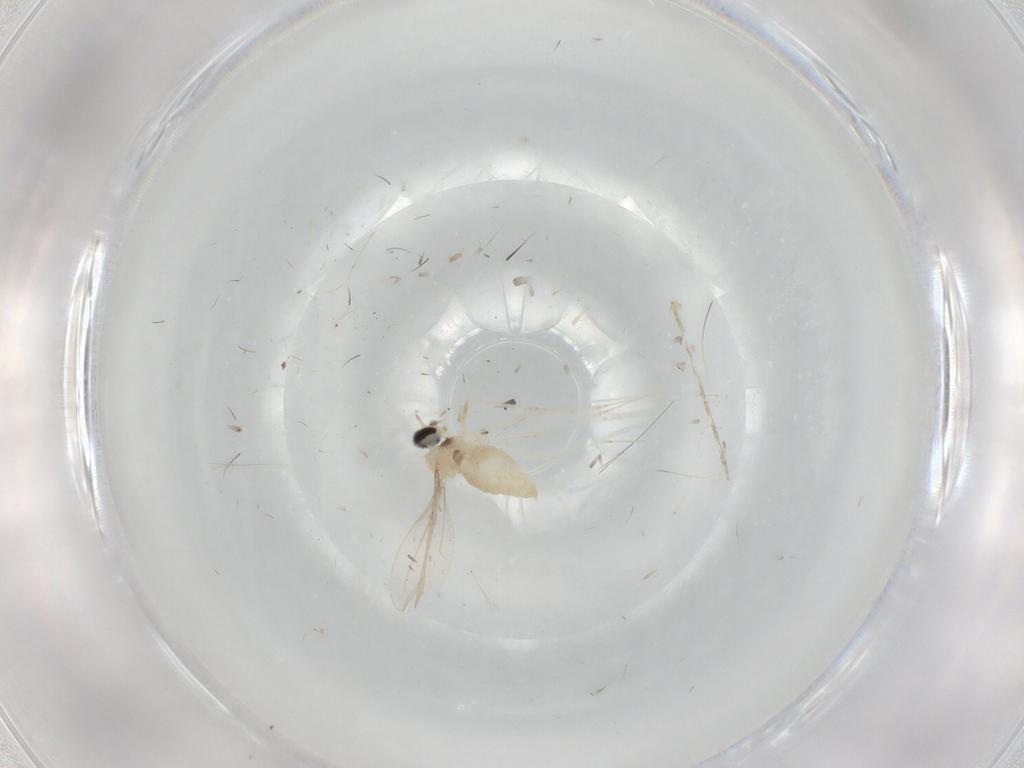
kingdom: Animalia
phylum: Arthropoda
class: Insecta
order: Diptera
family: Cecidomyiidae
